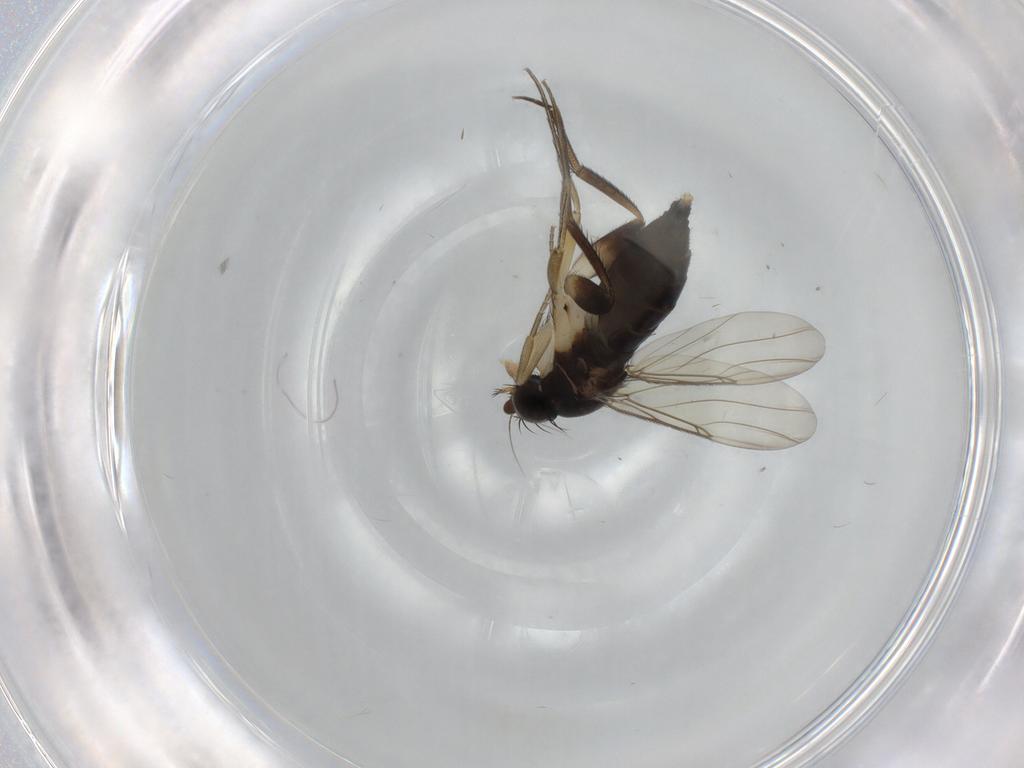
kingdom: Animalia
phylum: Arthropoda
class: Insecta
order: Diptera
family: Phoridae
